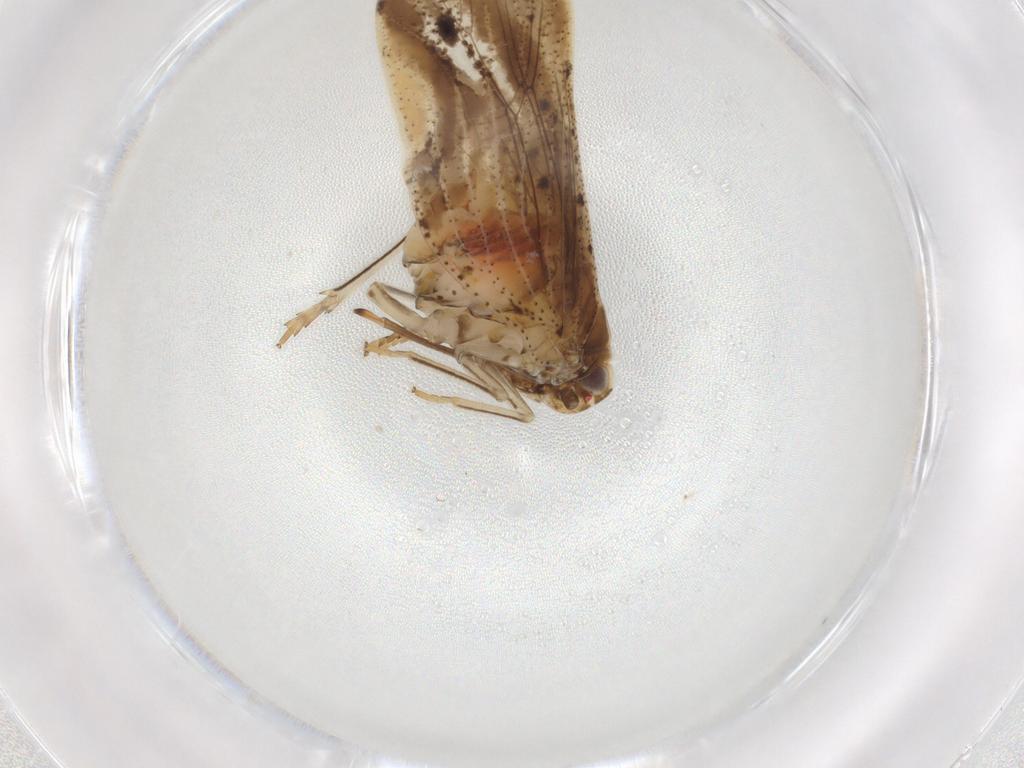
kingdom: Animalia
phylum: Arthropoda
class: Insecta
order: Hemiptera
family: Cixiidae
